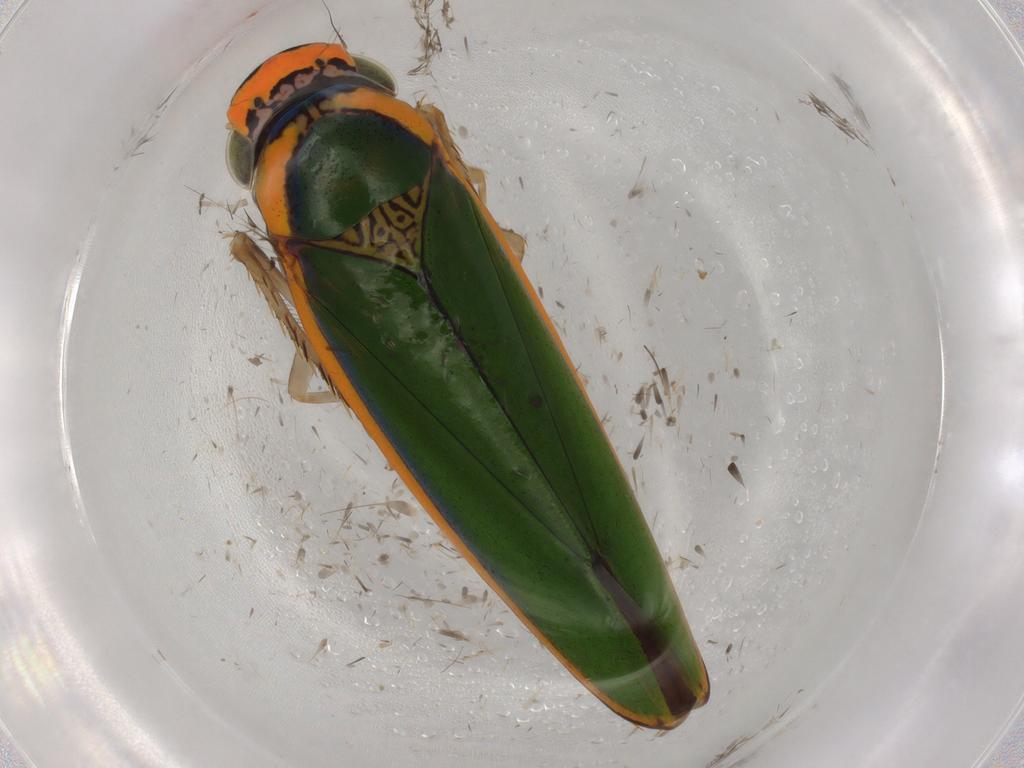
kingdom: Animalia
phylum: Arthropoda
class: Insecta
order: Hemiptera
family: Cicadellidae
